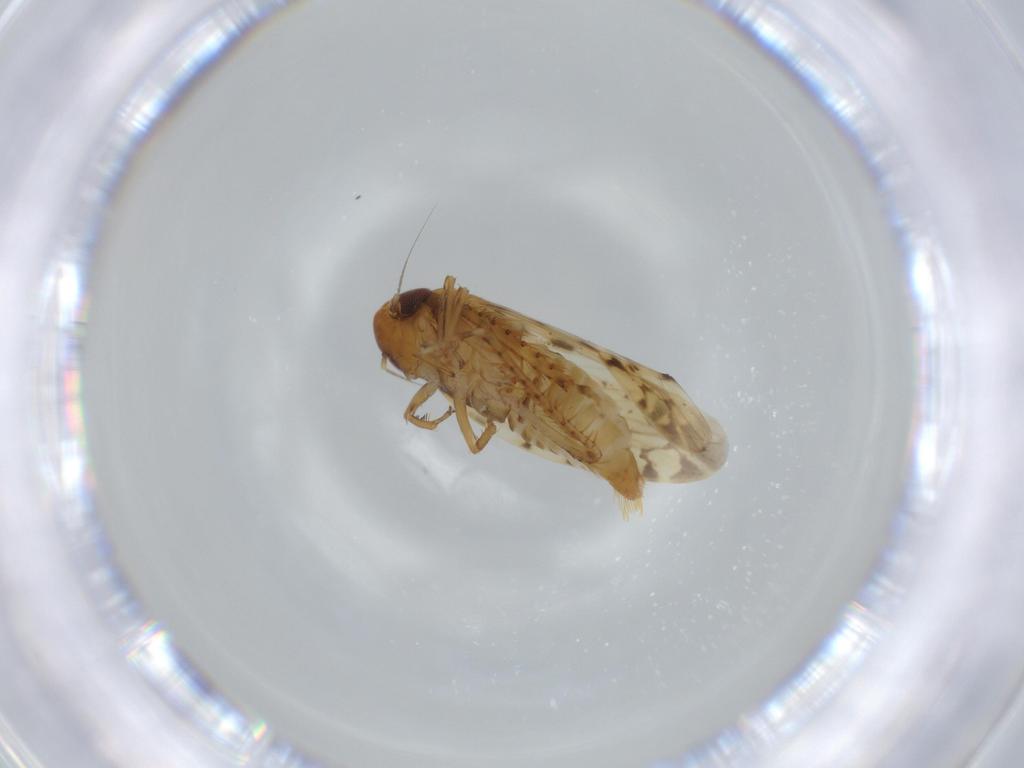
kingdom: Animalia
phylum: Arthropoda
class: Insecta
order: Hemiptera
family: Cicadellidae
